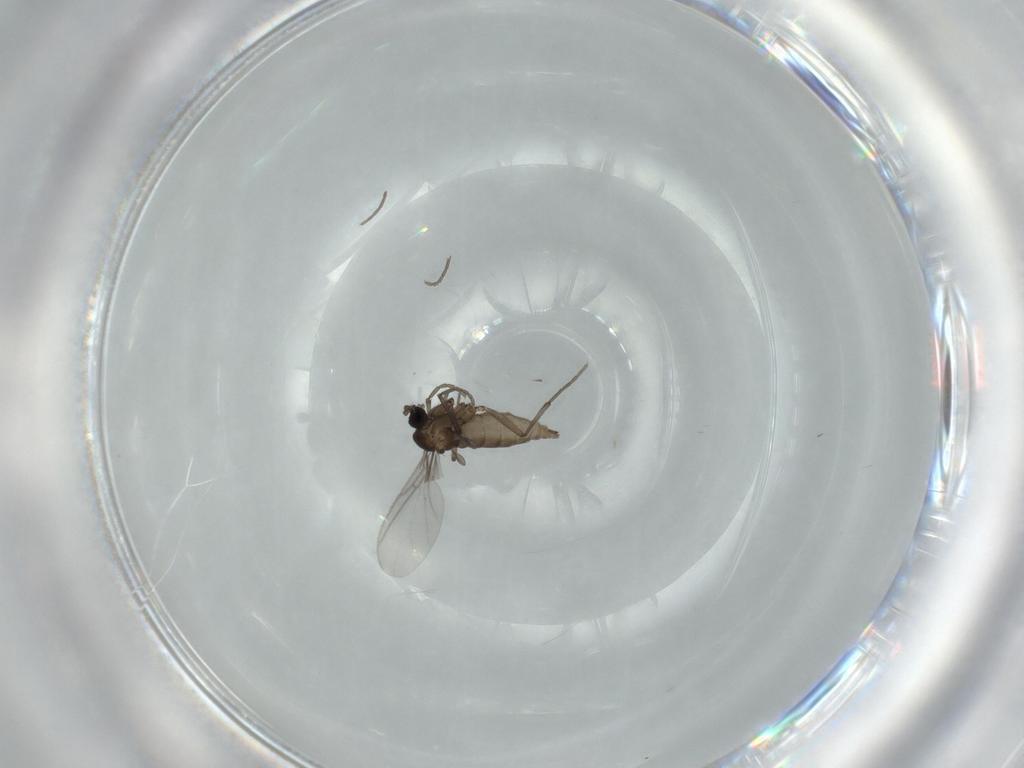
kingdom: Animalia
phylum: Arthropoda
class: Insecta
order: Diptera
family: Sciaridae
